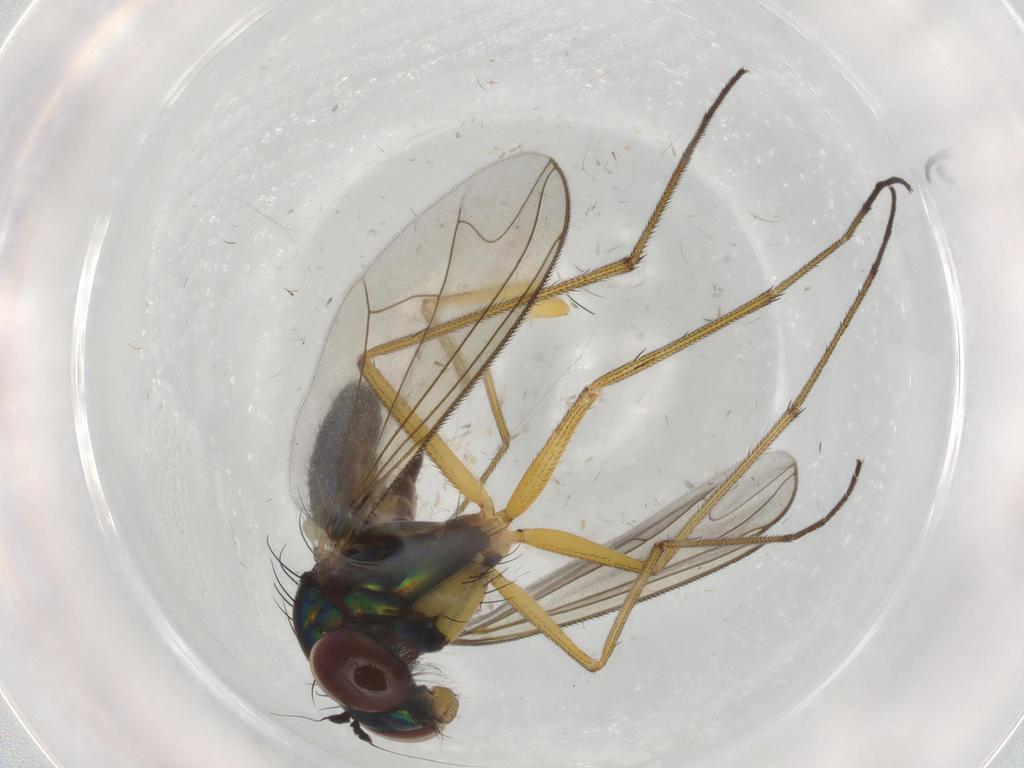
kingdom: Animalia
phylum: Arthropoda
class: Insecta
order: Diptera
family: Dolichopodidae
